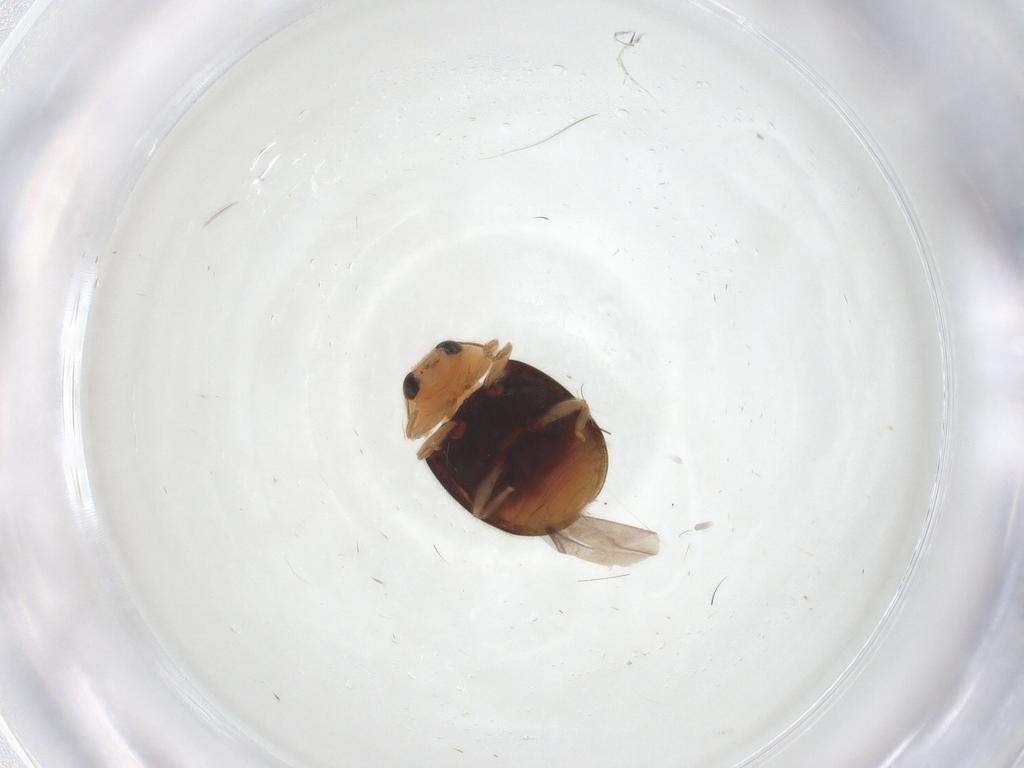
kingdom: Animalia
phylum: Arthropoda
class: Insecta
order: Coleoptera
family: Coccinellidae
